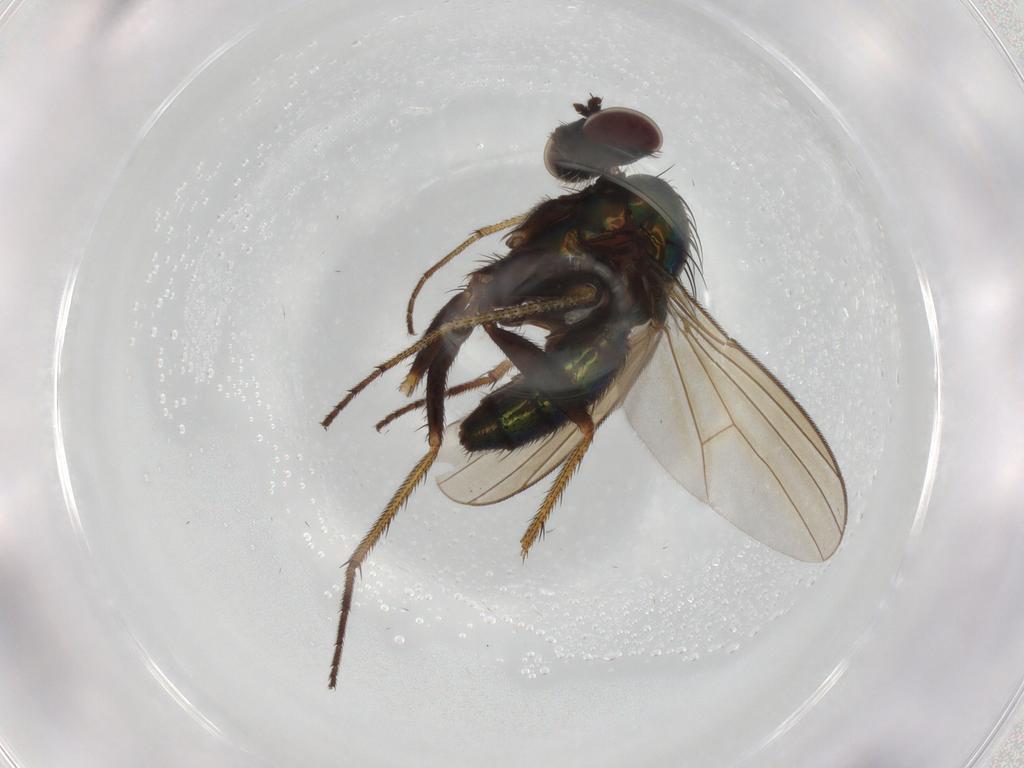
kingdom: Animalia
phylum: Arthropoda
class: Insecta
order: Diptera
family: Dolichopodidae
